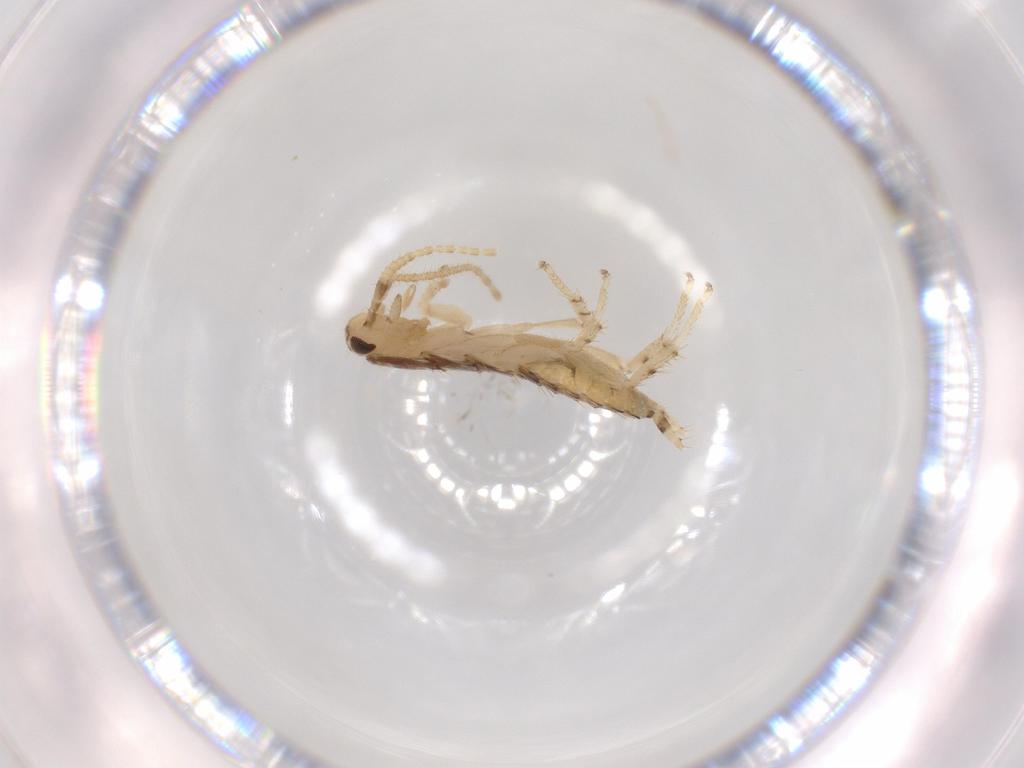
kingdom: Animalia
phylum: Arthropoda
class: Insecta
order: Blattodea
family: Ectobiidae
